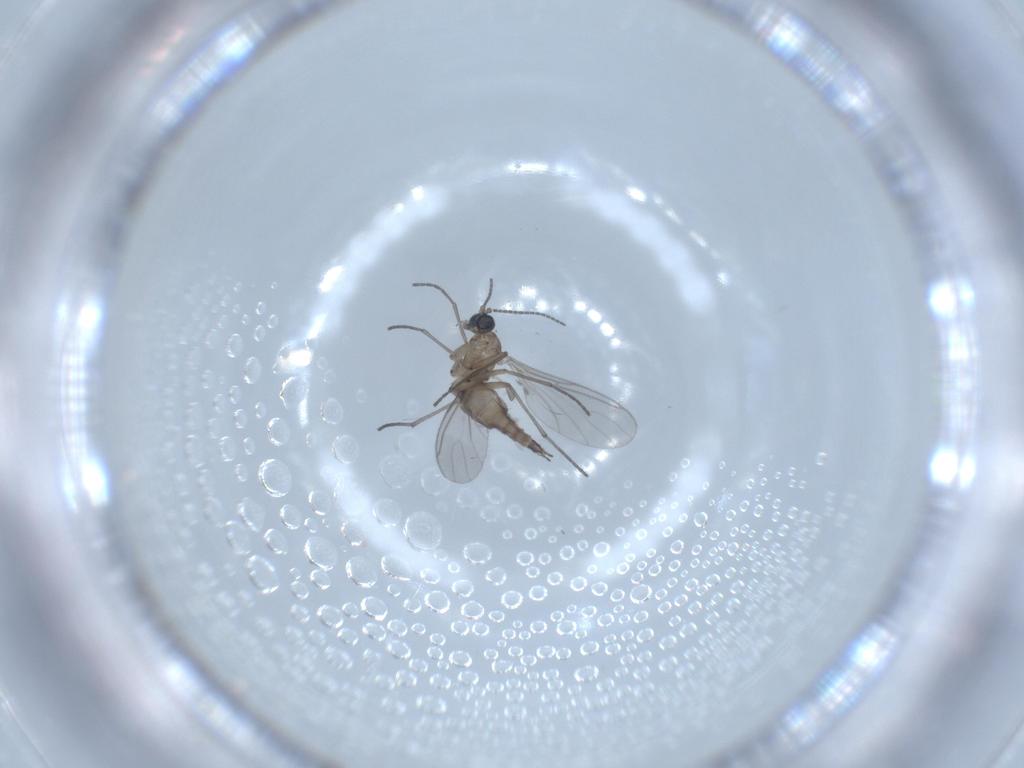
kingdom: Animalia
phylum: Arthropoda
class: Insecta
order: Diptera
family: Sciaridae
